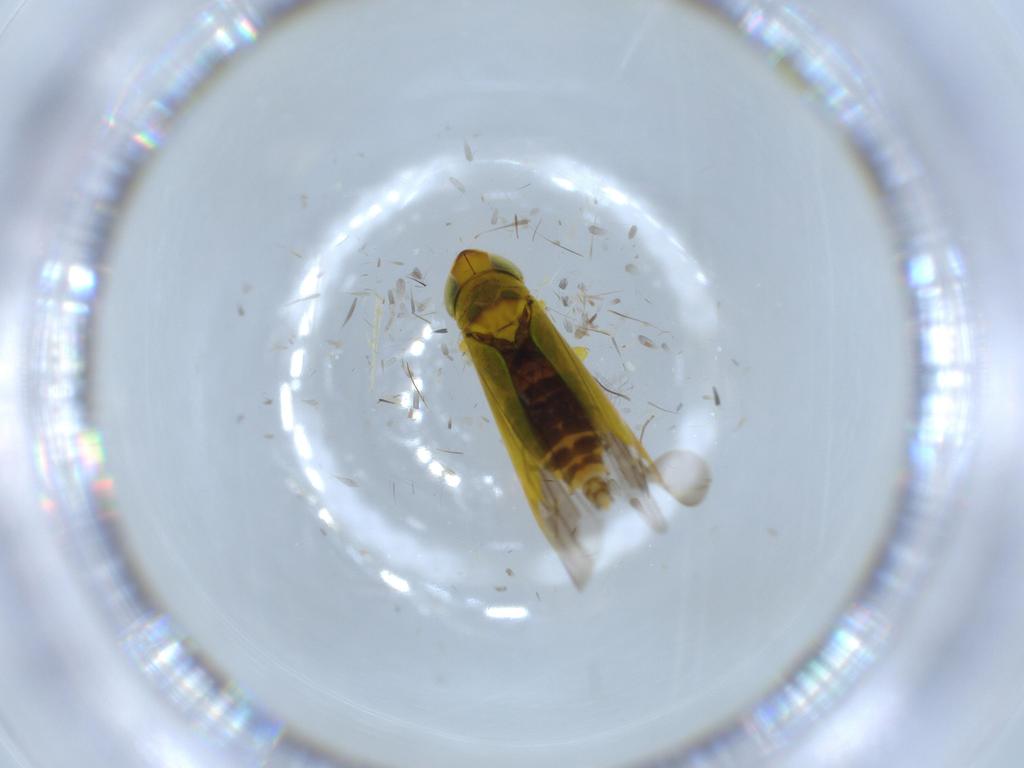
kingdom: Animalia
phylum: Arthropoda
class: Insecta
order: Hemiptera
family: Cicadellidae
